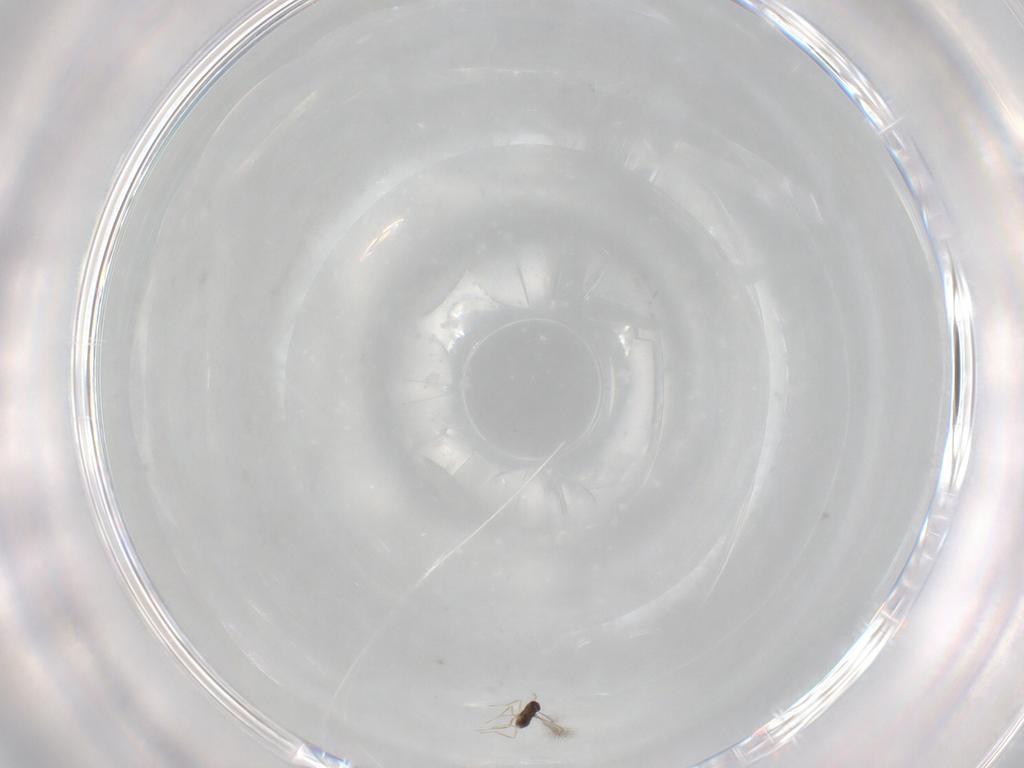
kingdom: Animalia
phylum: Arthropoda
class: Insecta
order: Hymenoptera
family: Mymaridae
